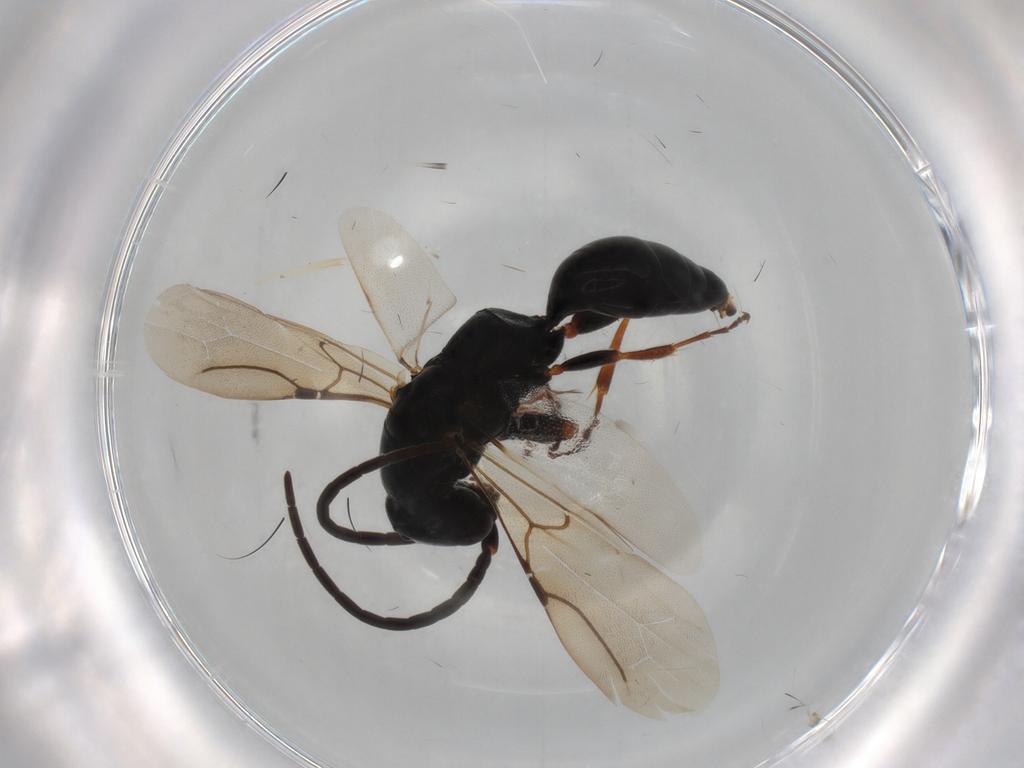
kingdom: Animalia
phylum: Arthropoda
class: Insecta
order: Hymenoptera
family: Bethylidae
